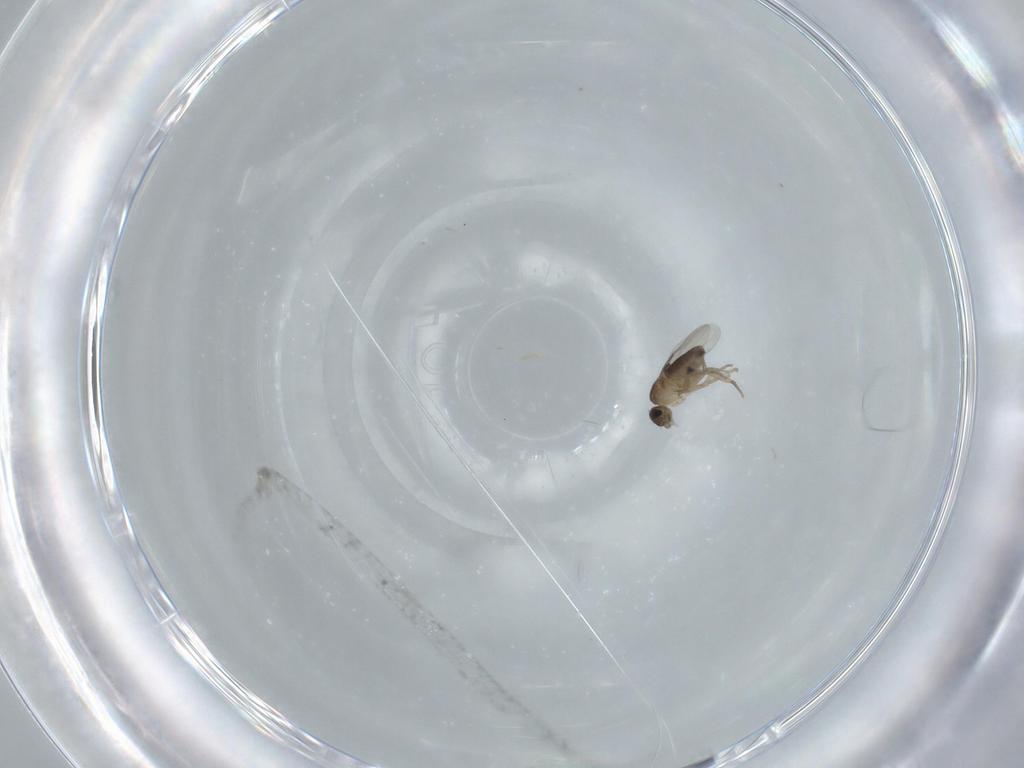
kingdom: Animalia
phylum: Arthropoda
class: Insecta
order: Diptera
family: Phoridae
